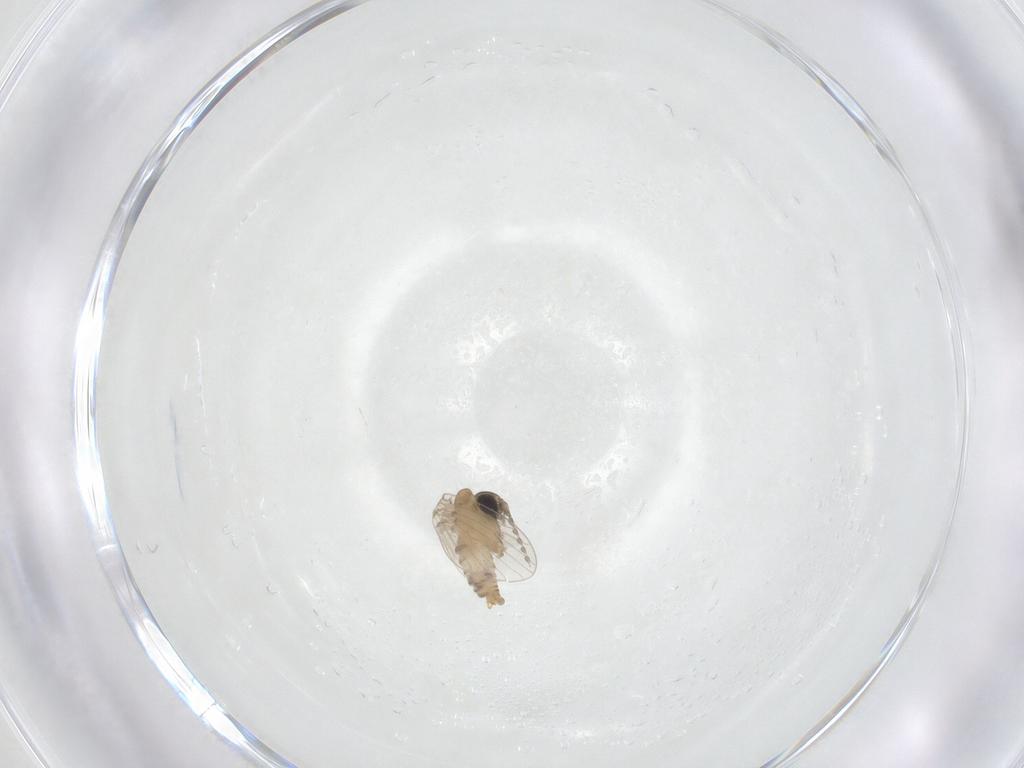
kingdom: Animalia
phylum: Arthropoda
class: Insecta
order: Diptera
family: Psychodidae
